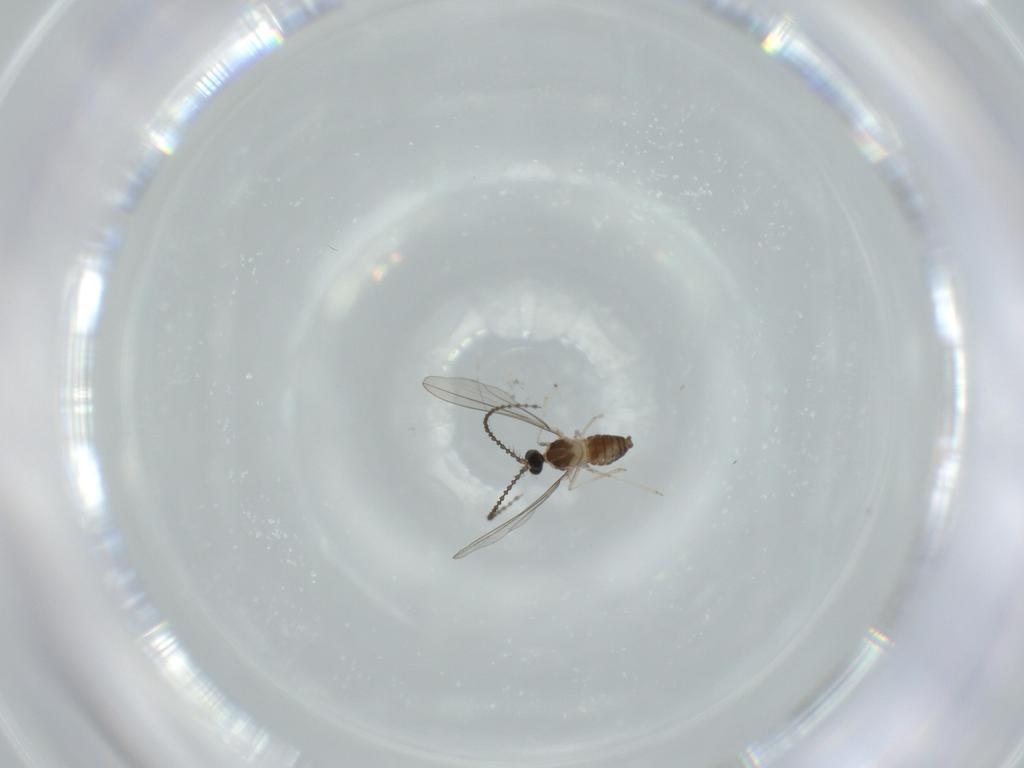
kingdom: Animalia
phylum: Arthropoda
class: Insecta
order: Diptera
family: Cecidomyiidae
